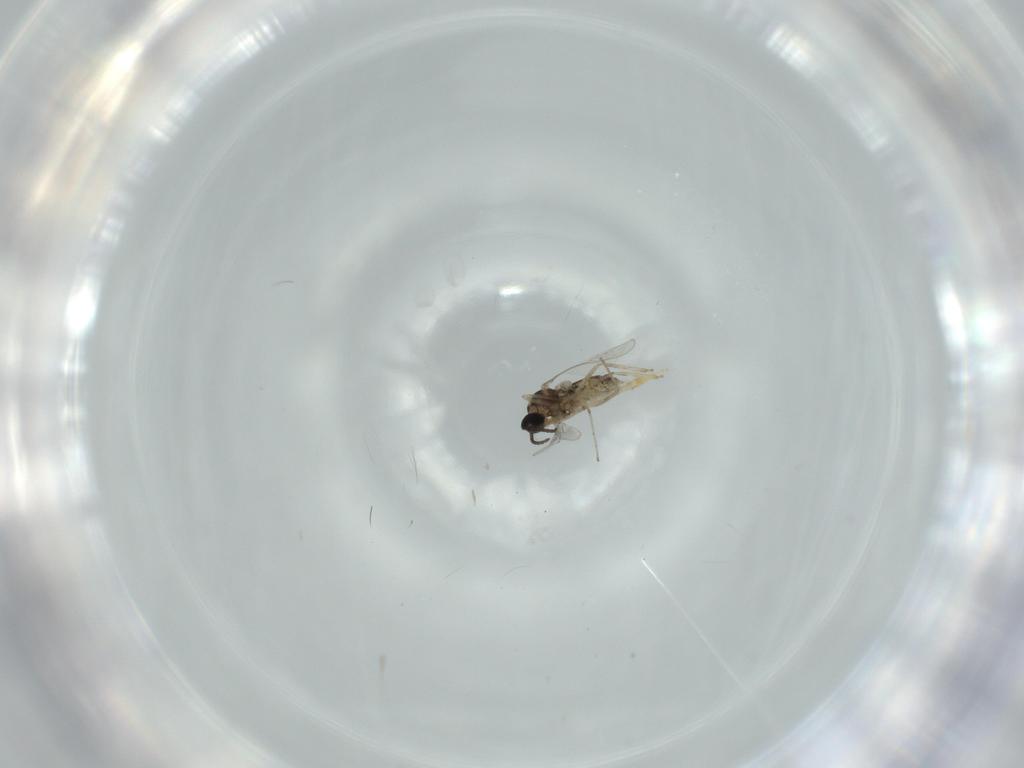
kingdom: Animalia
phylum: Arthropoda
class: Insecta
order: Diptera
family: Cecidomyiidae
